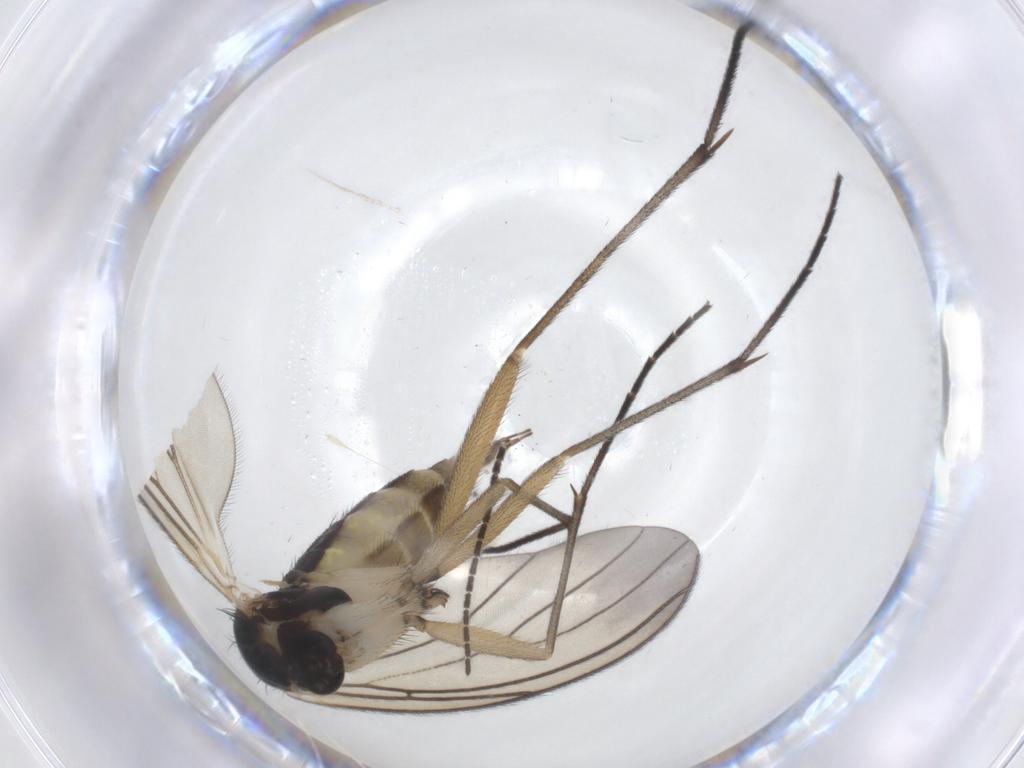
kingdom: Animalia
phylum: Arthropoda
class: Insecta
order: Diptera
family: Sciaridae
